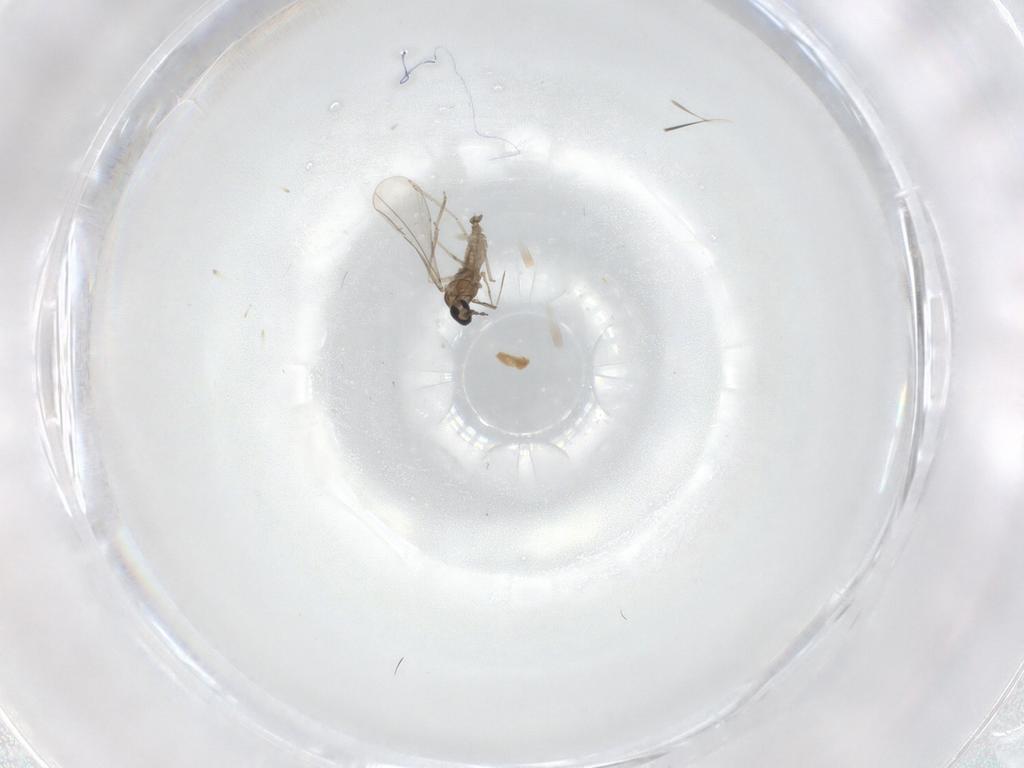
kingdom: Animalia
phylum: Arthropoda
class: Insecta
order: Diptera
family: Cecidomyiidae
